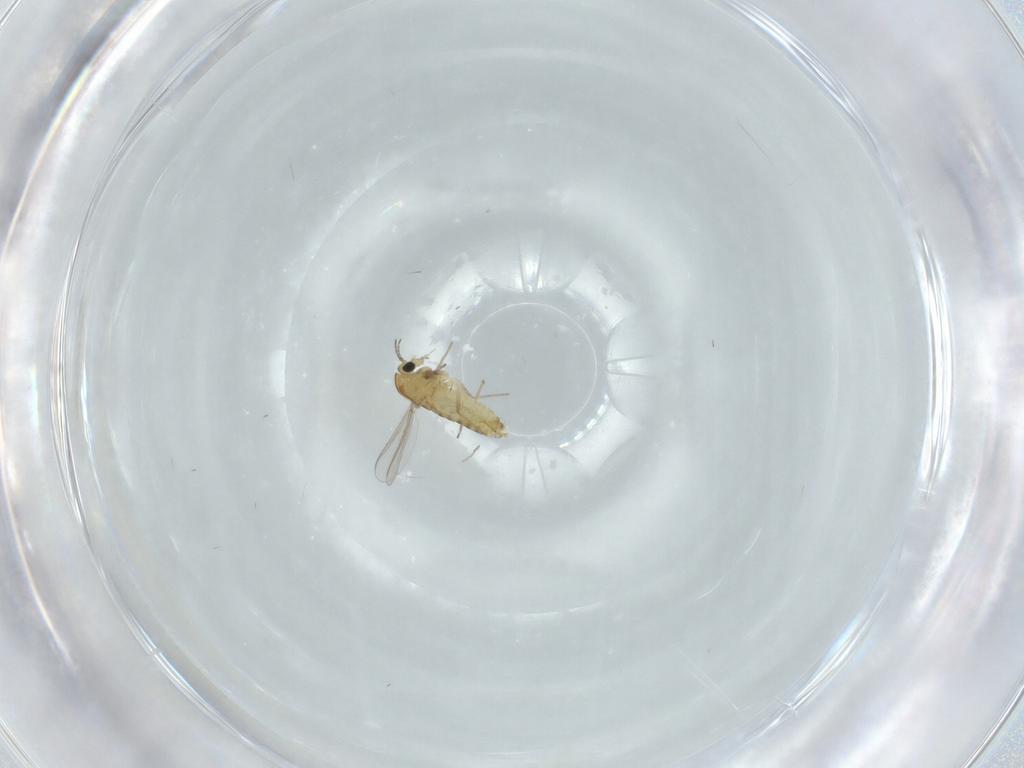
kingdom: Animalia
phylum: Arthropoda
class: Insecta
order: Diptera
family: Chironomidae
